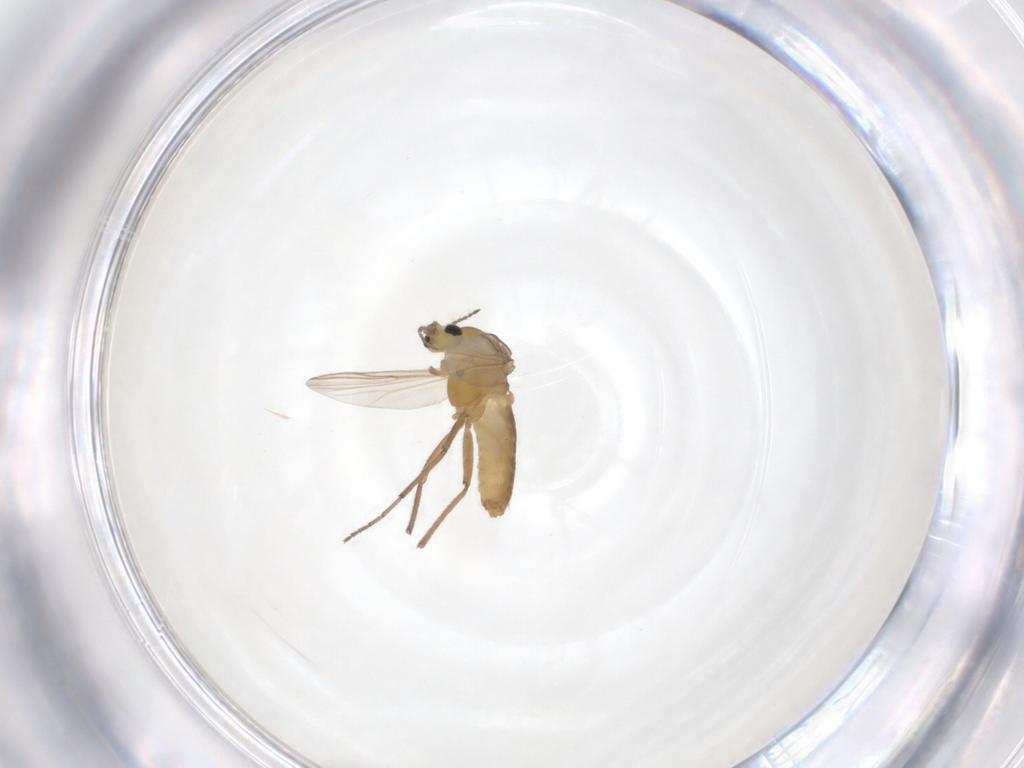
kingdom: Animalia
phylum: Arthropoda
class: Insecta
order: Diptera
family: Chironomidae
